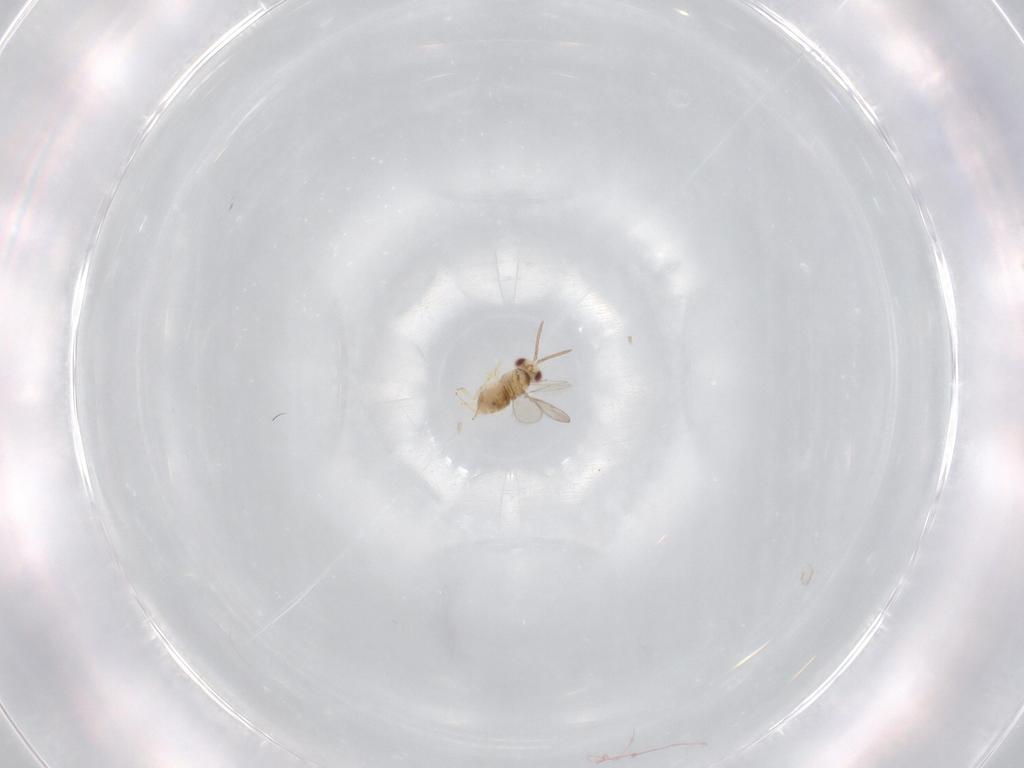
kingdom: Animalia
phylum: Arthropoda
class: Insecta
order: Hymenoptera
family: Aphelinidae
